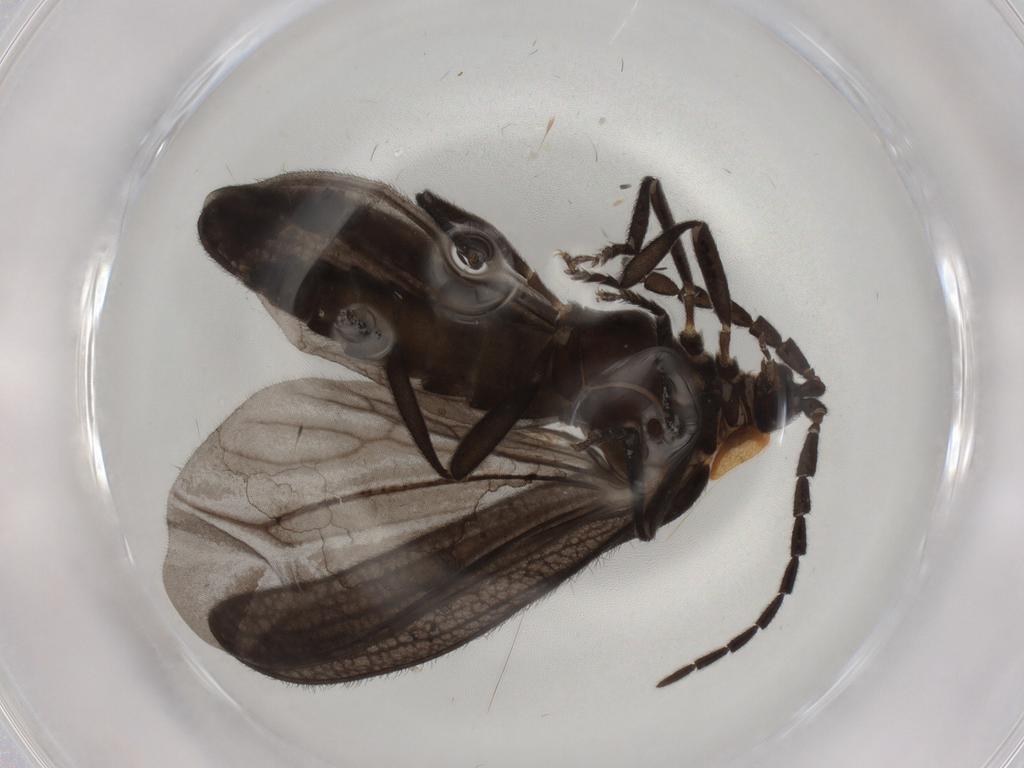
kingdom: Animalia
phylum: Arthropoda
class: Insecta
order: Coleoptera
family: Lycidae
